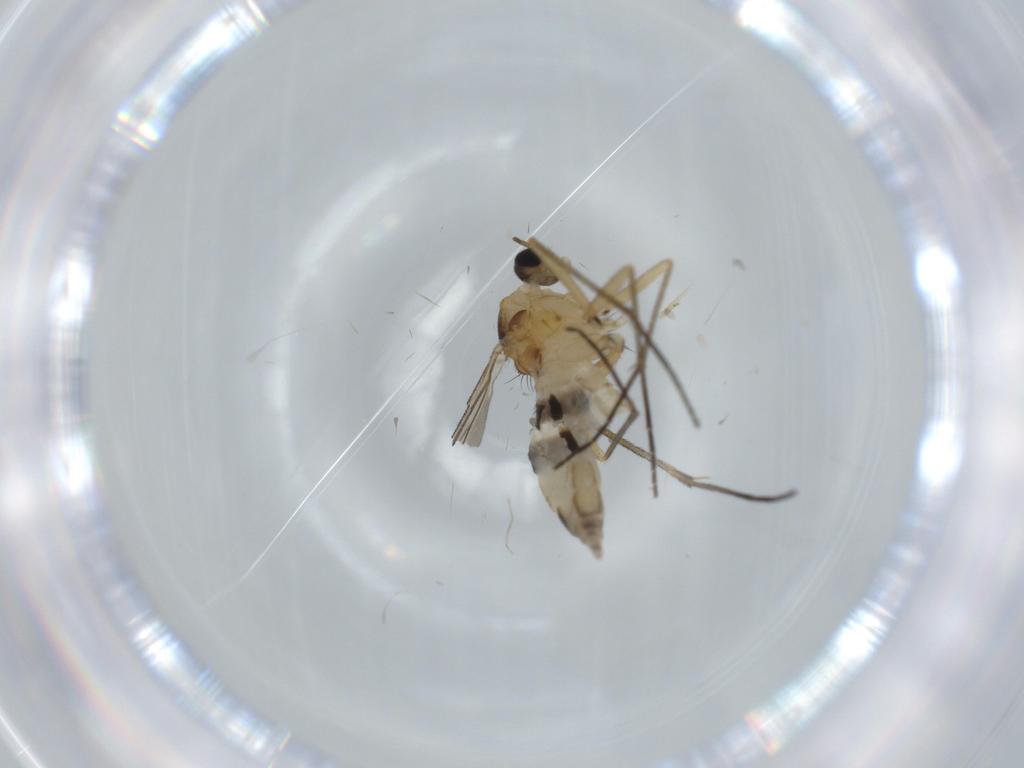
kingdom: Animalia
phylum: Arthropoda
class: Insecta
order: Diptera
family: Sciaridae
